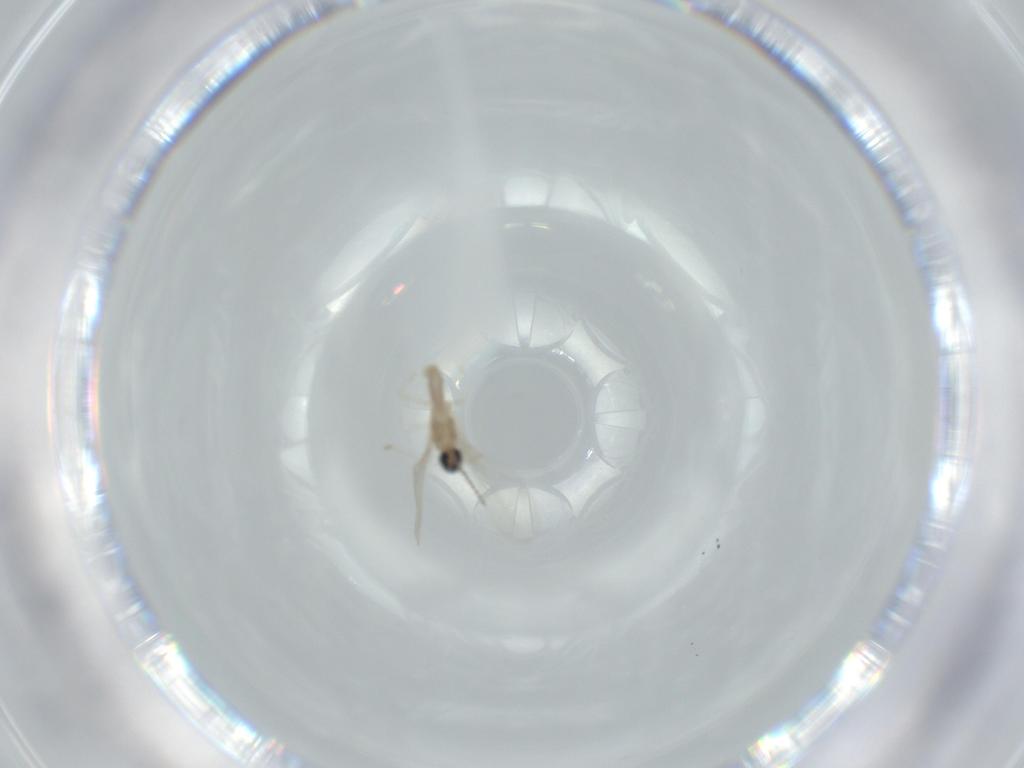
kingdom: Animalia
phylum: Arthropoda
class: Insecta
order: Diptera
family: Cecidomyiidae
